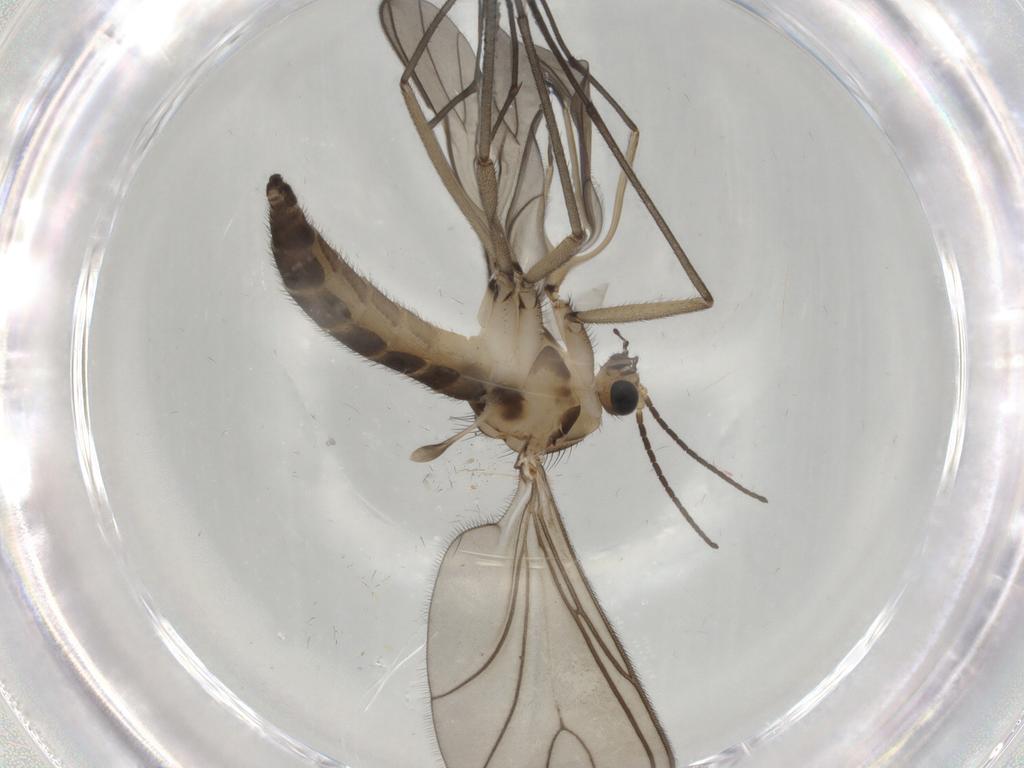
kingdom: Animalia
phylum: Arthropoda
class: Insecta
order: Diptera
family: Sciaridae
